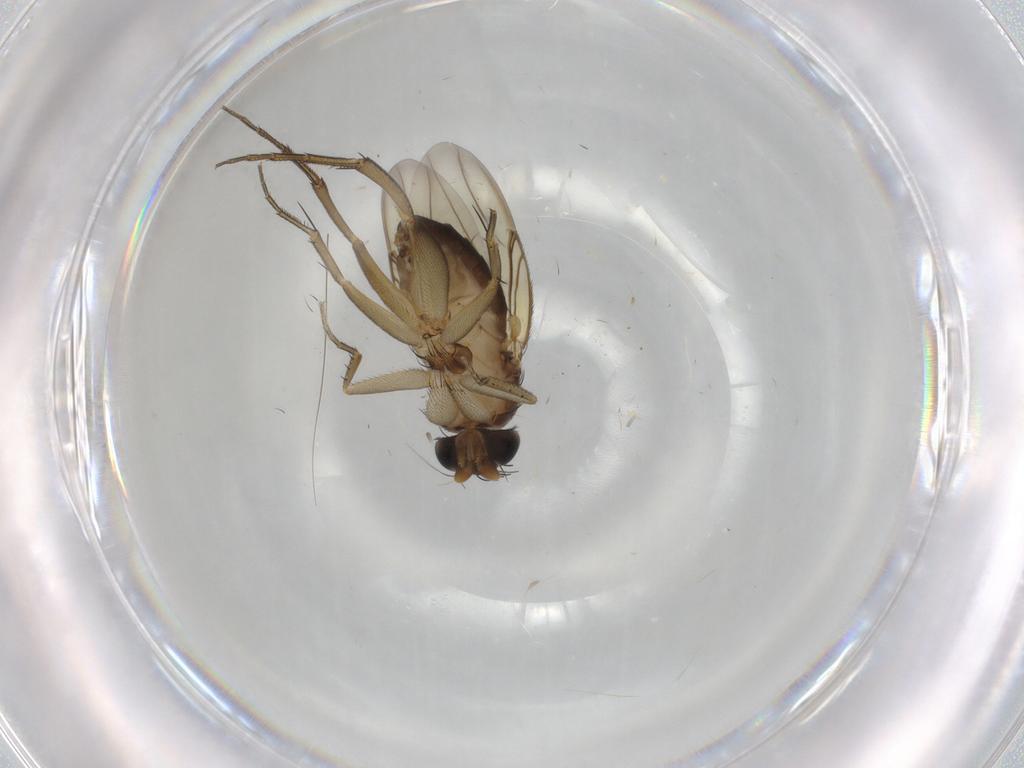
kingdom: Animalia
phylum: Arthropoda
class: Insecta
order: Diptera
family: Phoridae
